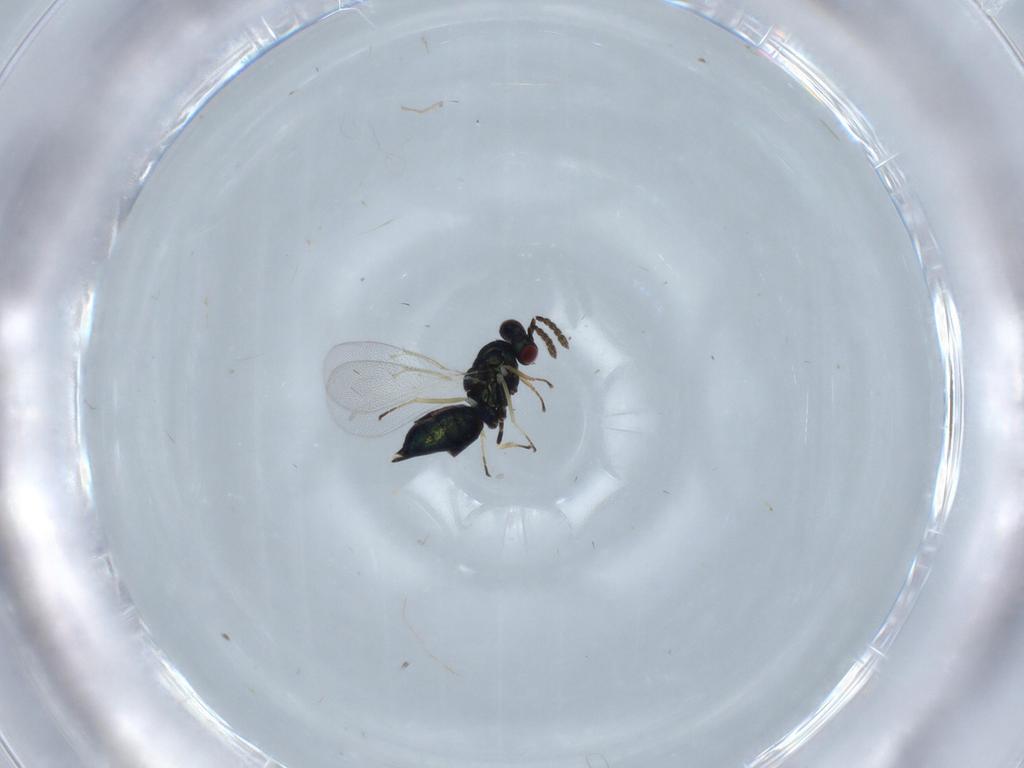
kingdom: Animalia
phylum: Arthropoda
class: Insecta
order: Hymenoptera
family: Eulophidae
